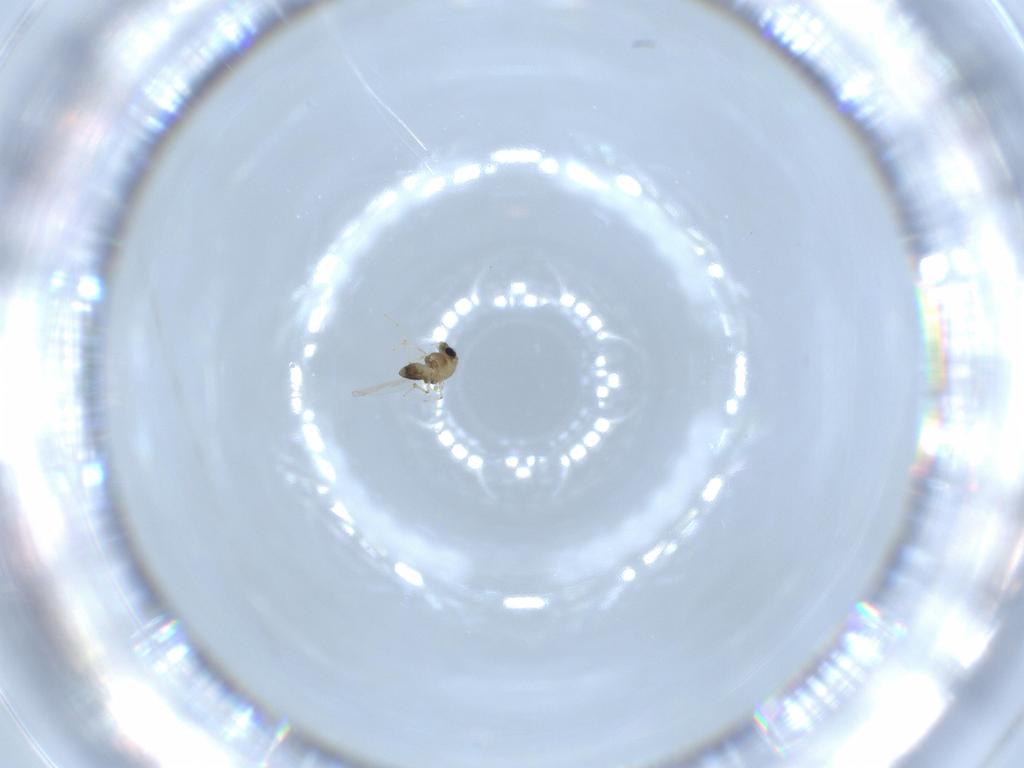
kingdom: Animalia
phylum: Arthropoda
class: Insecta
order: Diptera
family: Chironomidae
